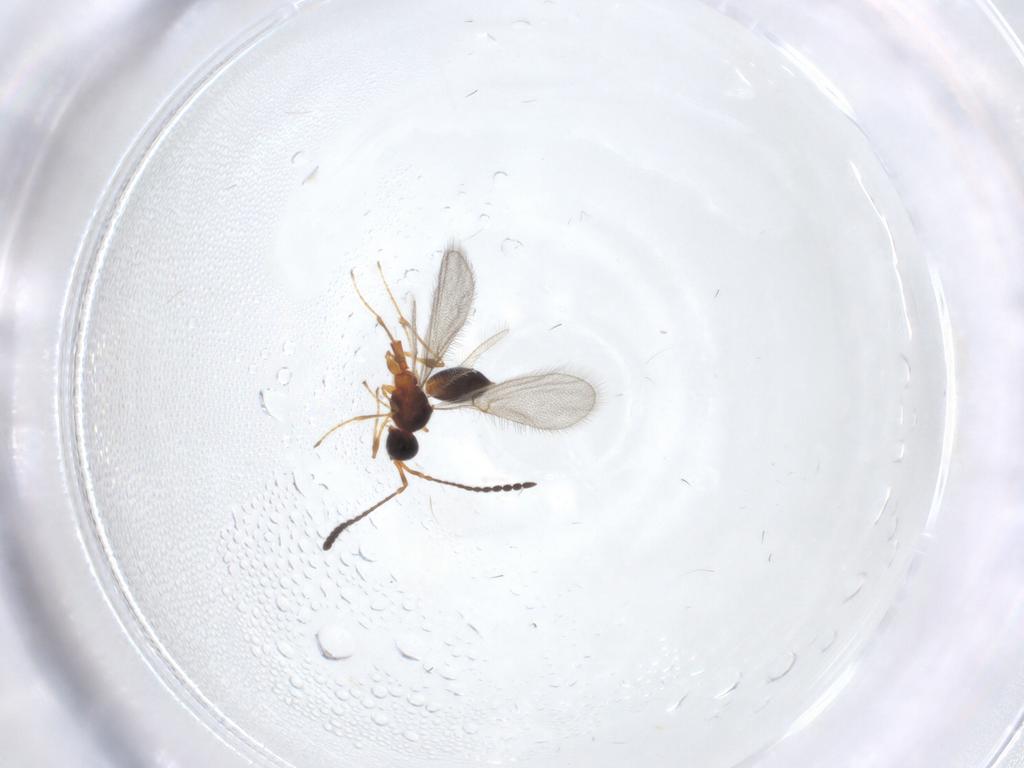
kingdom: Animalia
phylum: Arthropoda
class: Insecta
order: Hymenoptera
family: Diapriidae
